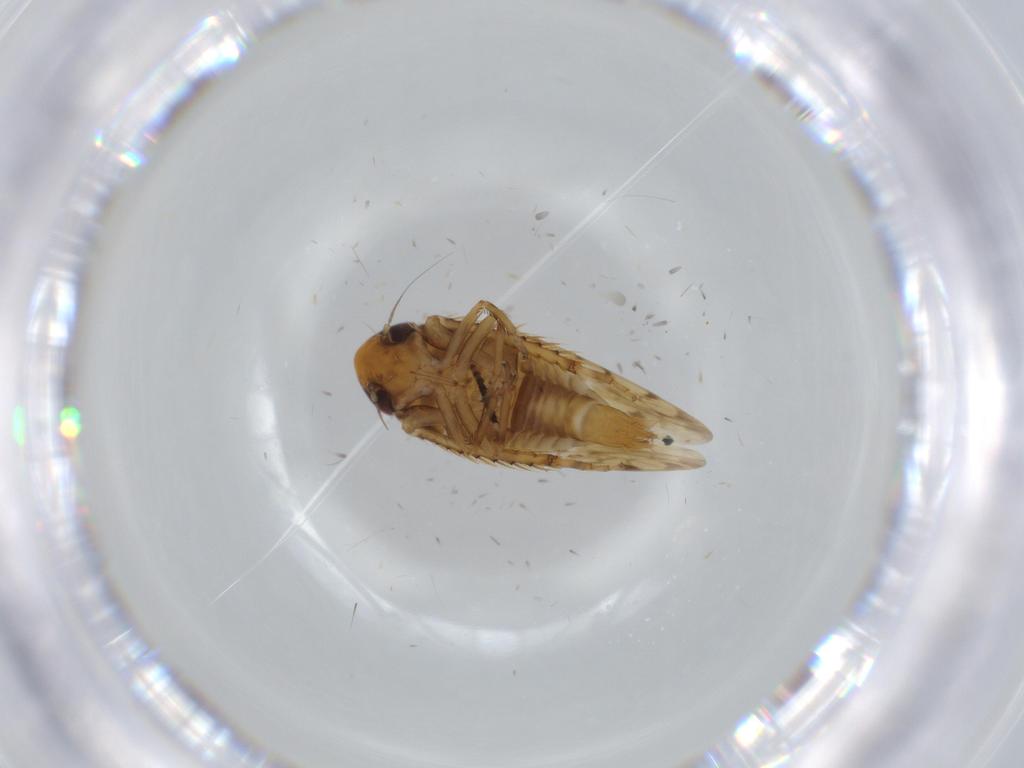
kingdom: Animalia
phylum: Arthropoda
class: Insecta
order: Hemiptera
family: Cicadellidae
